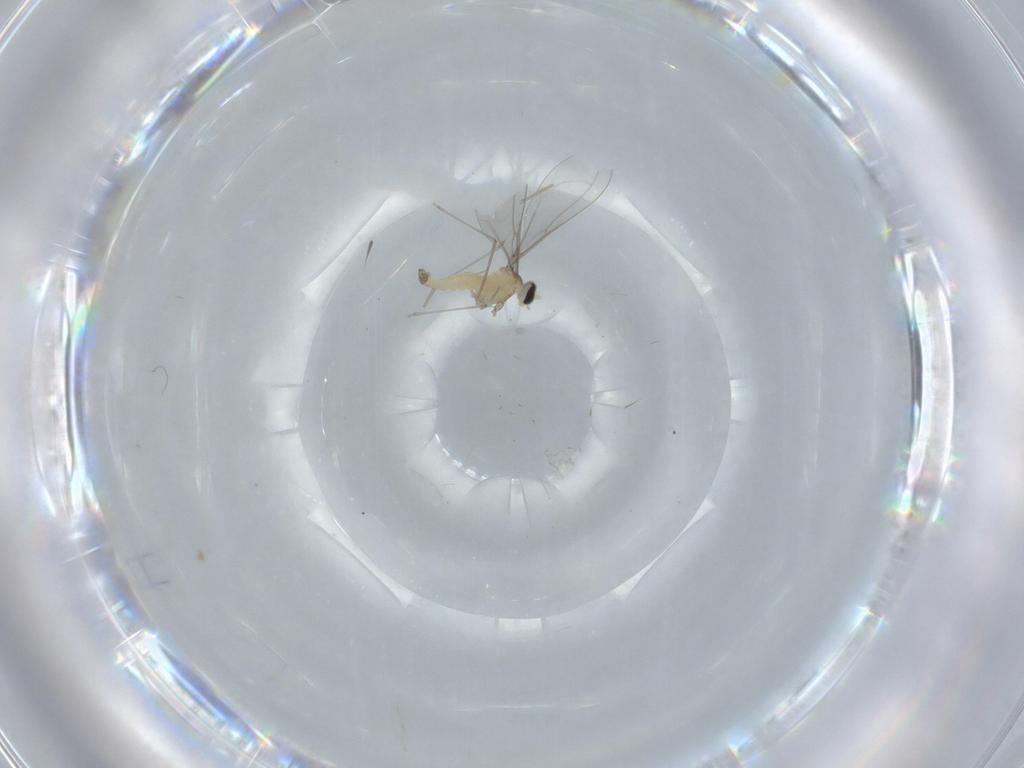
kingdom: Animalia
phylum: Arthropoda
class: Insecta
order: Diptera
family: Cecidomyiidae
